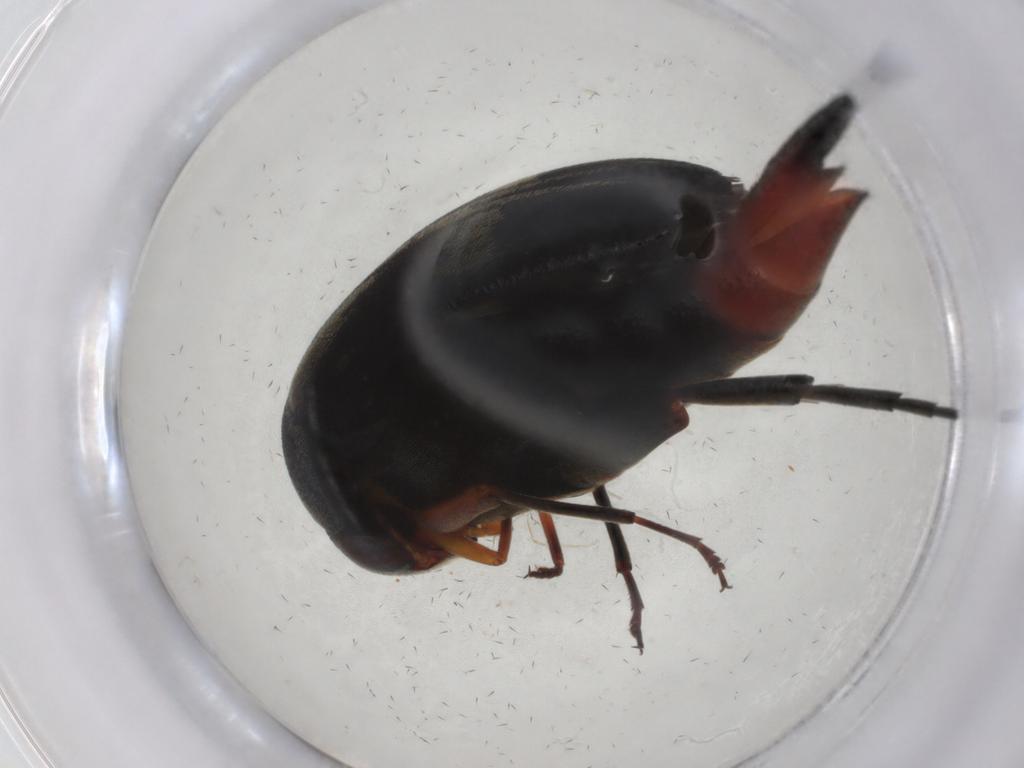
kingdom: Animalia
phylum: Arthropoda
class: Insecta
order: Coleoptera
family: Mordellidae
